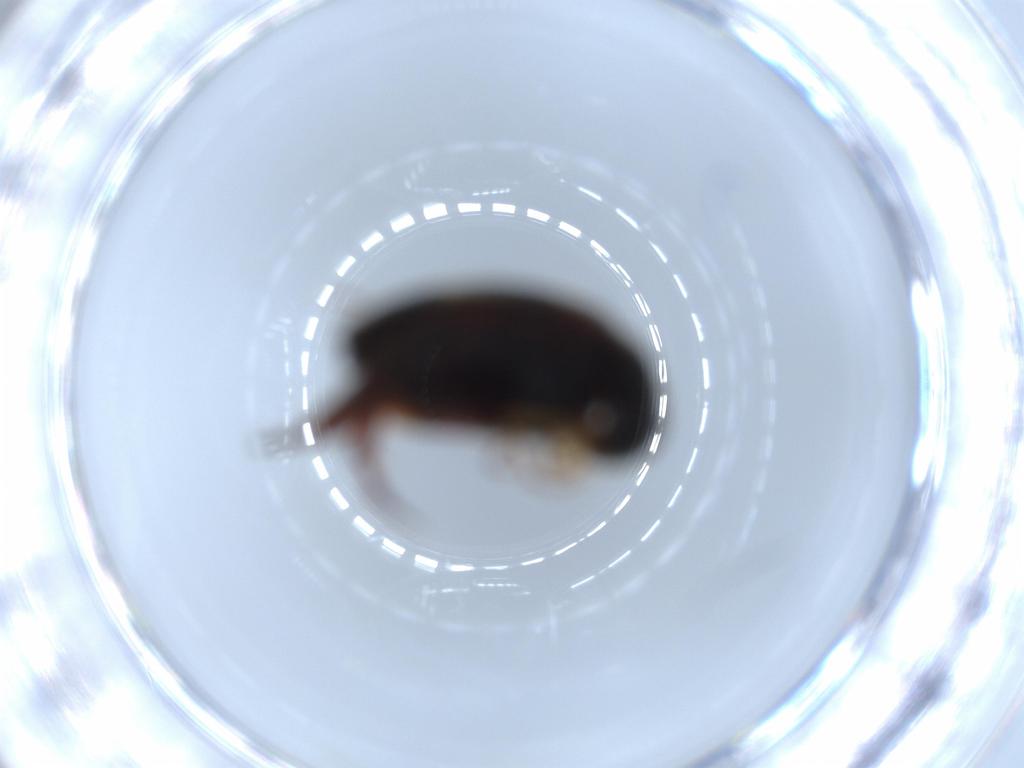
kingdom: Animalia
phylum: Arthropoda
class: Insecta
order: Coleoptera
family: Mordellidae
